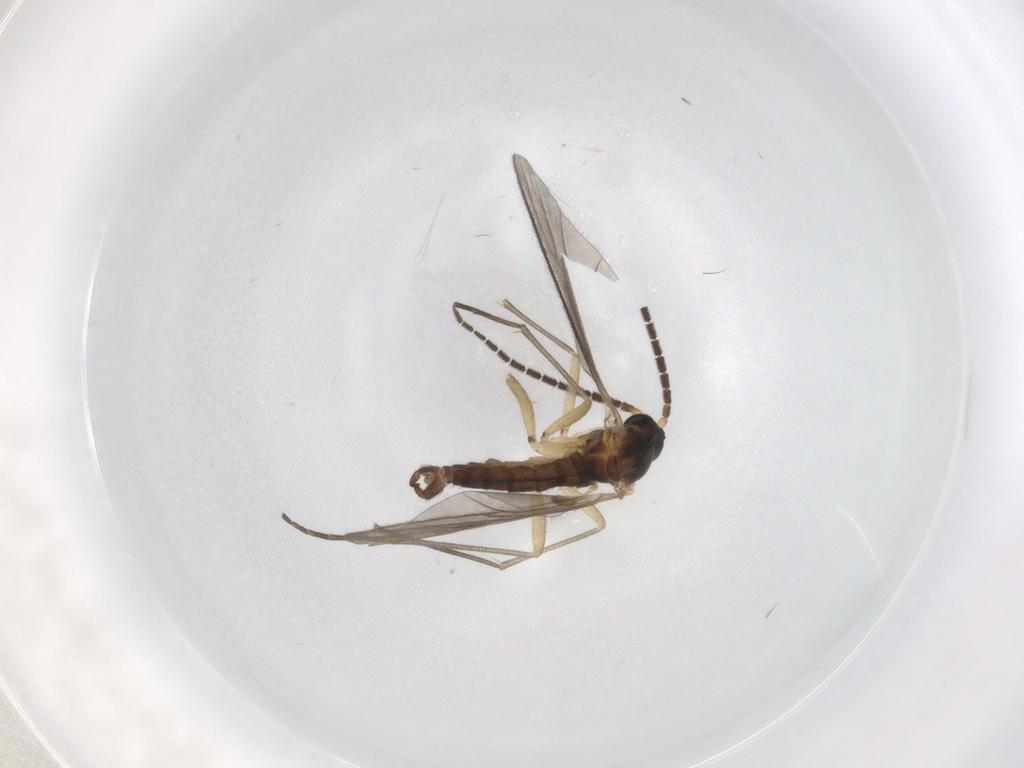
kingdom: Animalia
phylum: Arthropoda
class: Insecta
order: Diptera
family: Sciaridae
